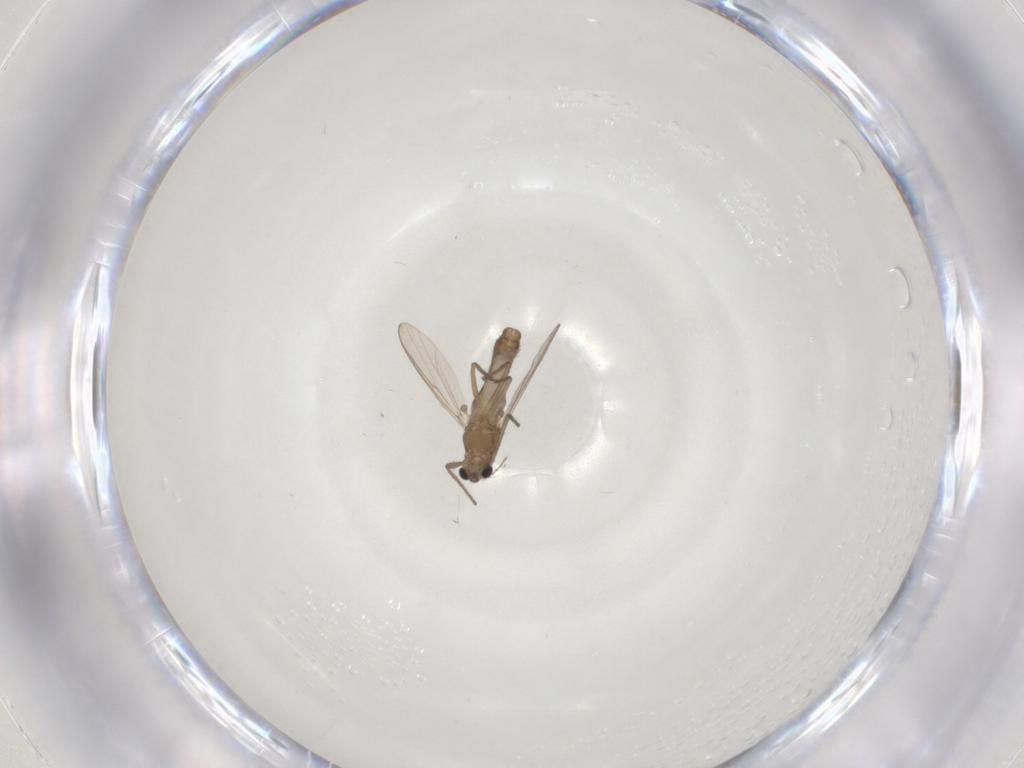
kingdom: Animalia
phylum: Arthropoda
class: Insecta
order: Diptera
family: Chironomidae
